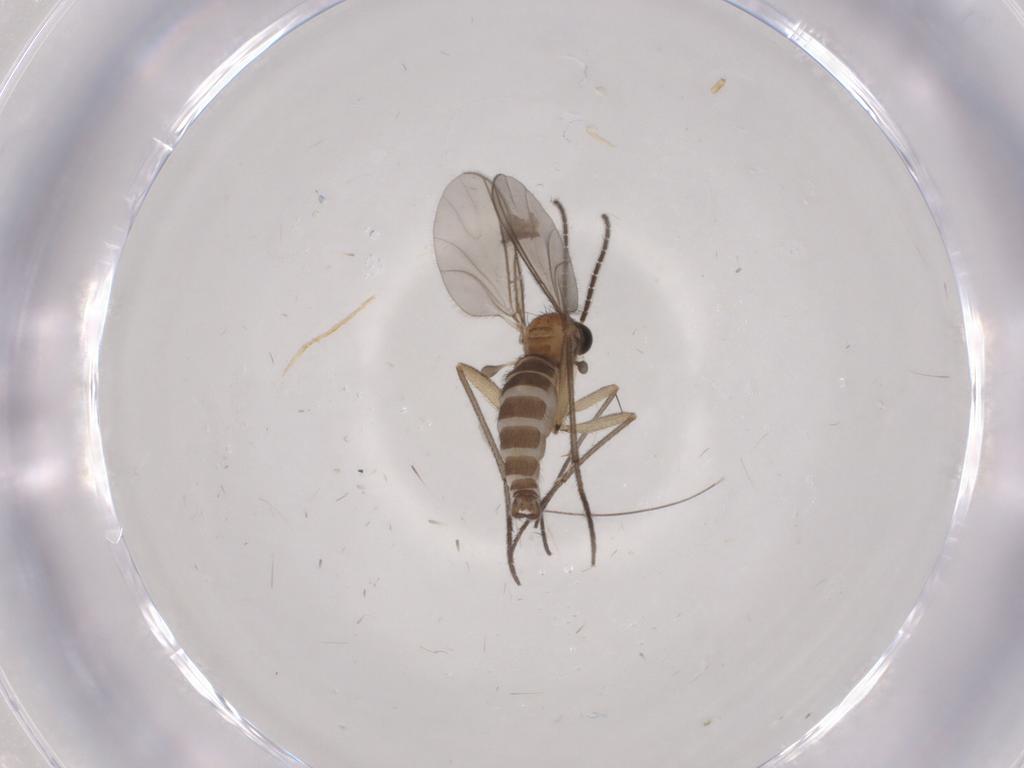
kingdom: Animalia
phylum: Arthropoda
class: Insecta
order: Diptera
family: Sciaridae
